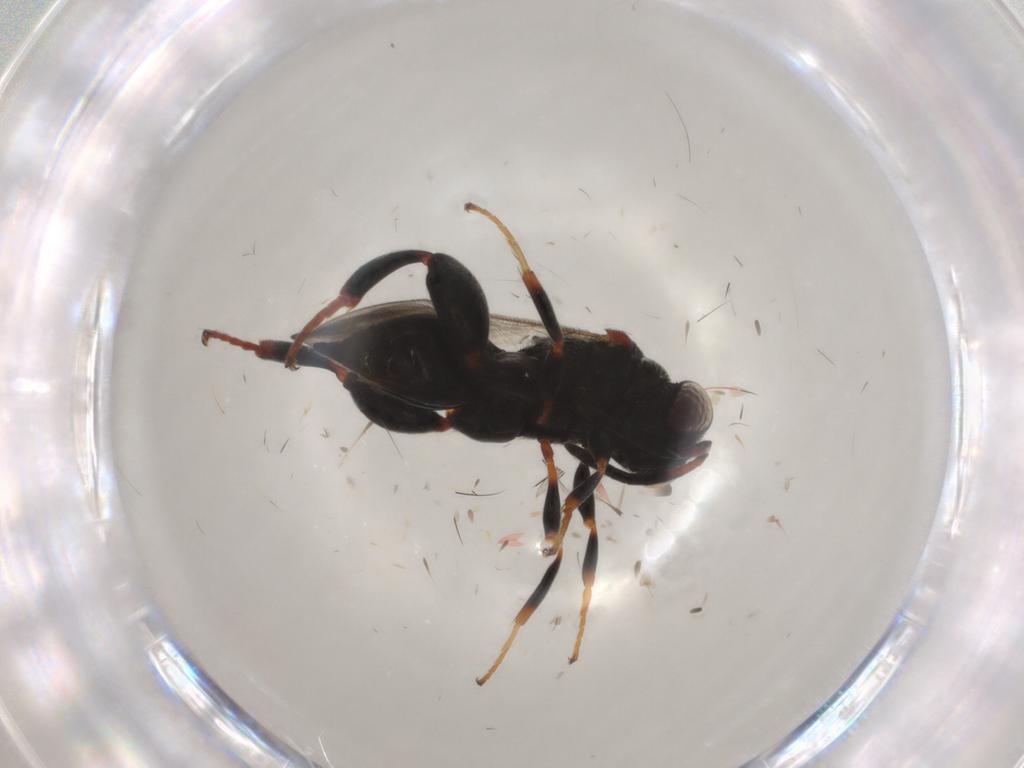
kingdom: Animalia
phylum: Arthropoda
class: Insecta
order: Hymenoptera
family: Chalcididae
